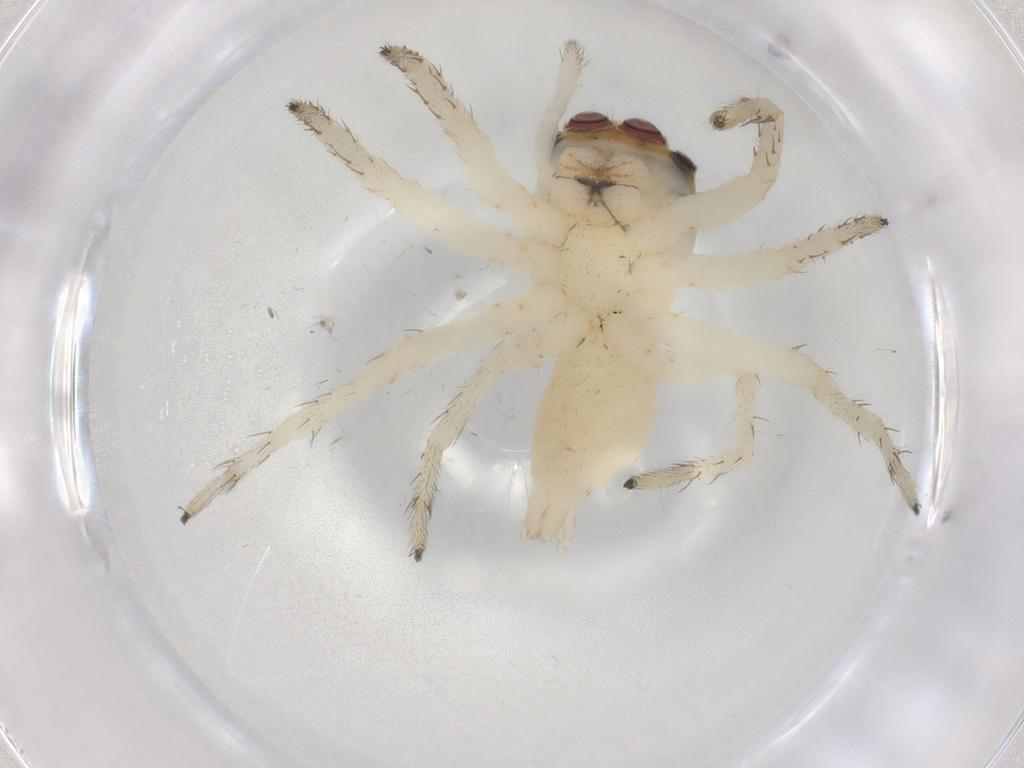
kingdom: Animalia
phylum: Arthropoda
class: Arachnida
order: Araneae
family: Salticidae
